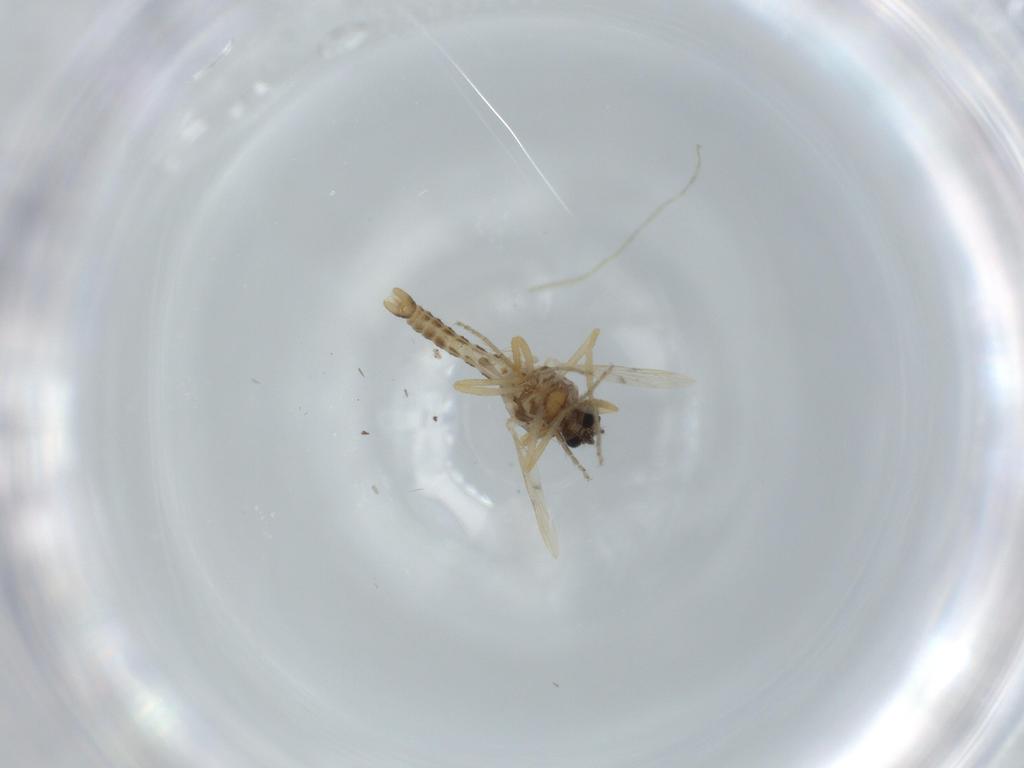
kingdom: Animalia
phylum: Arthropoda
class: Insecta
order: Diptera
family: Ceratopogonidae
